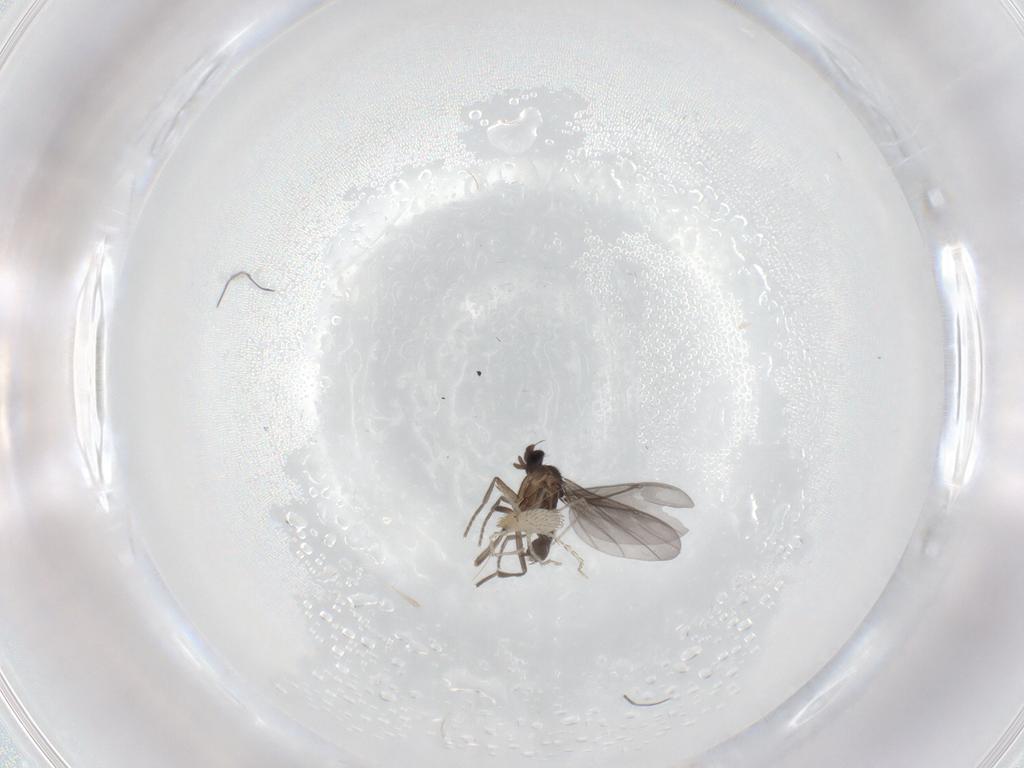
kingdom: Animalia
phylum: Arthropoda
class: Insecta
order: Diptera
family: Phoridae
